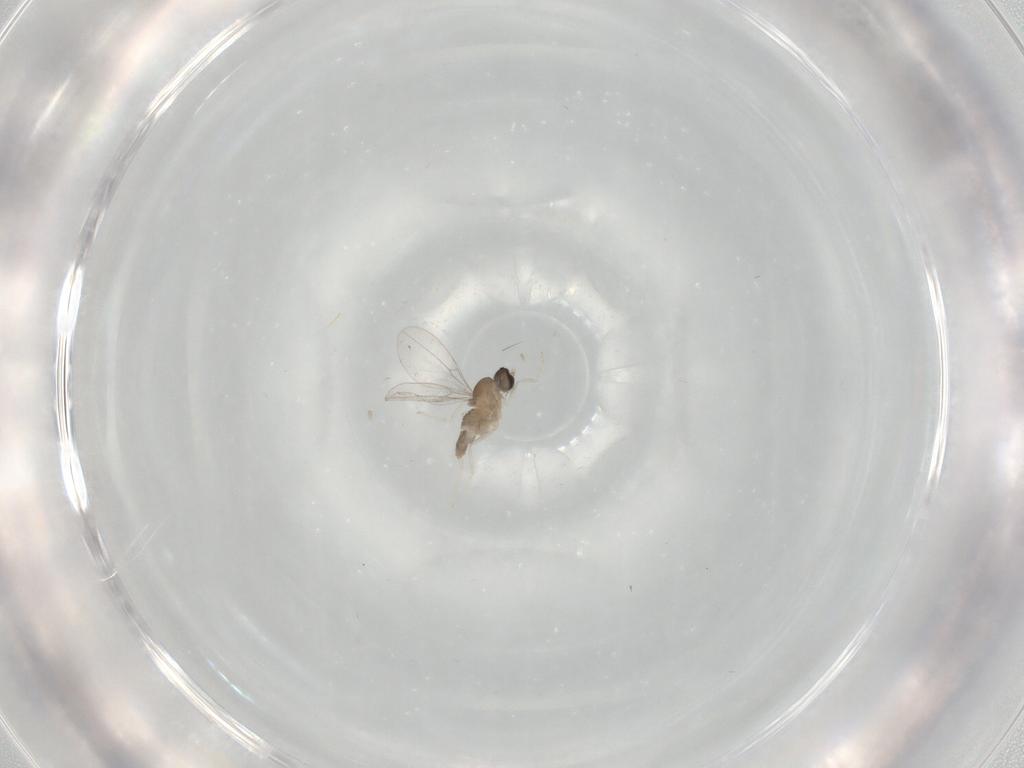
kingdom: Animalia
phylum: Arthropoda
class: Insecta
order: Diptera
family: Cecidomyiidae
